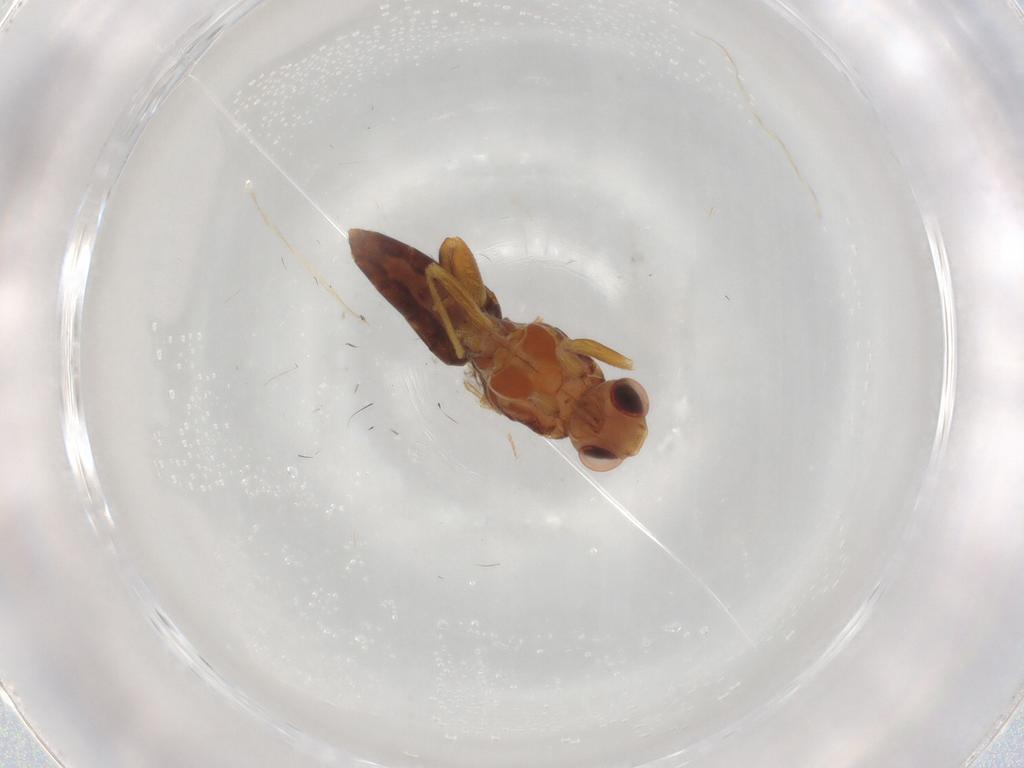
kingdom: Animalia
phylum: Arthropoda
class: Insecta
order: Diptera
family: Chloropidae
